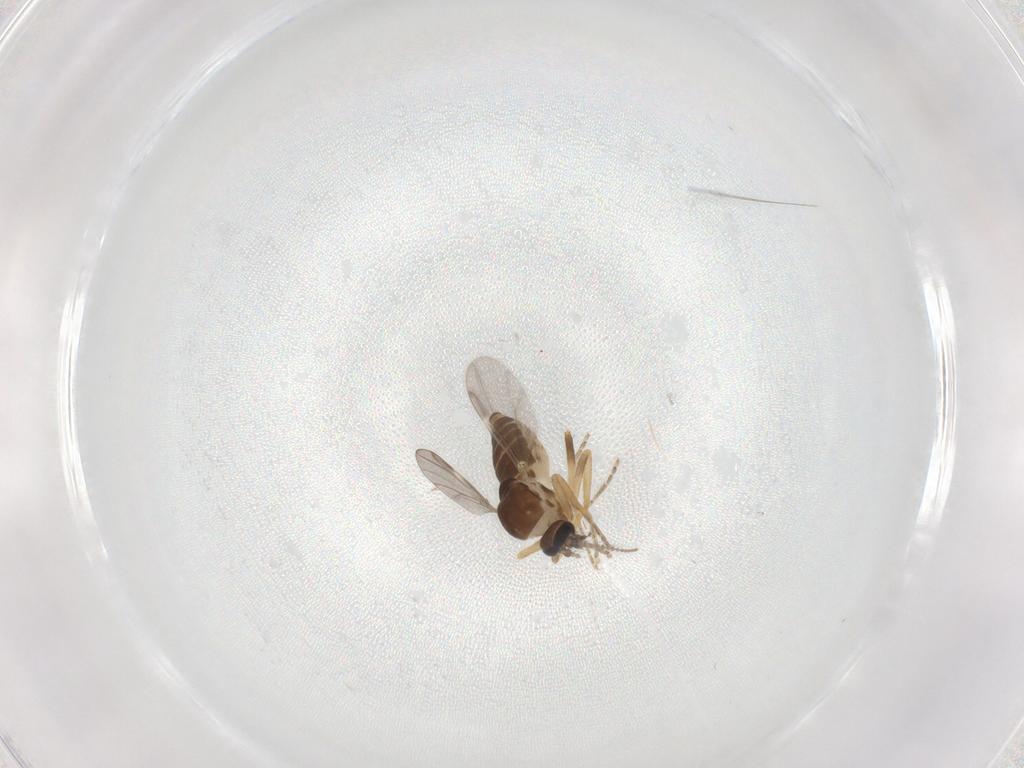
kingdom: Animalia
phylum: Arthropoda
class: Insecta
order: Diptera
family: Ceratopogonidae
